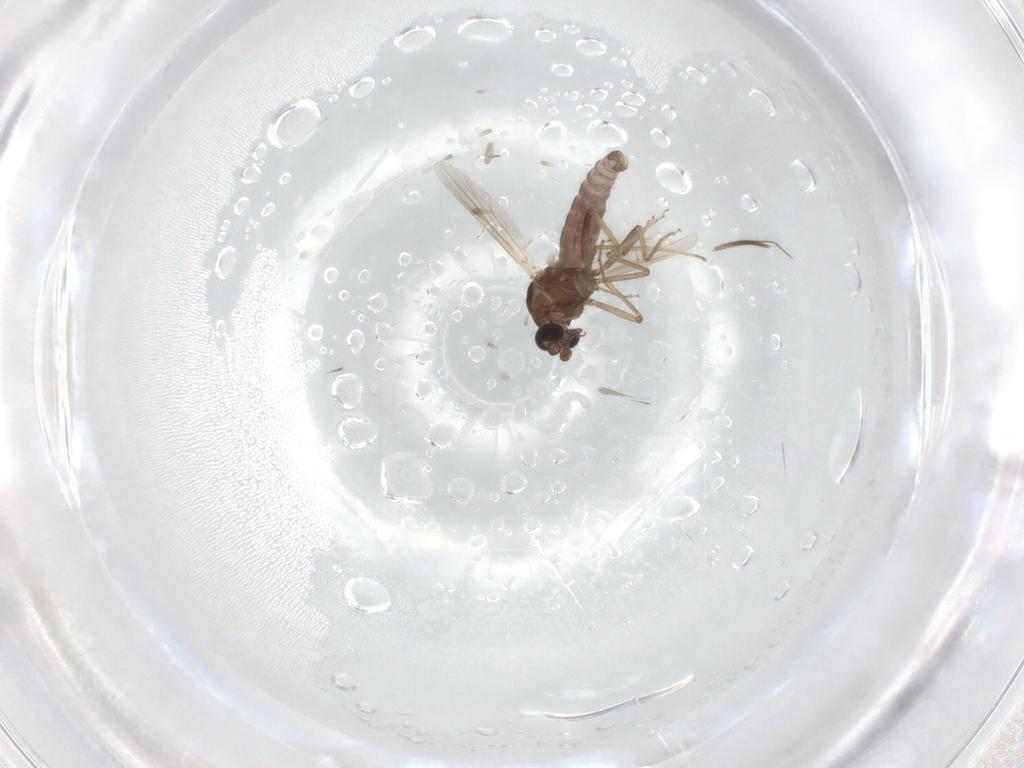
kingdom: Animalia
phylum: Arthropoda
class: Insecta
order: Diptera
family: Ceratopogonidae
